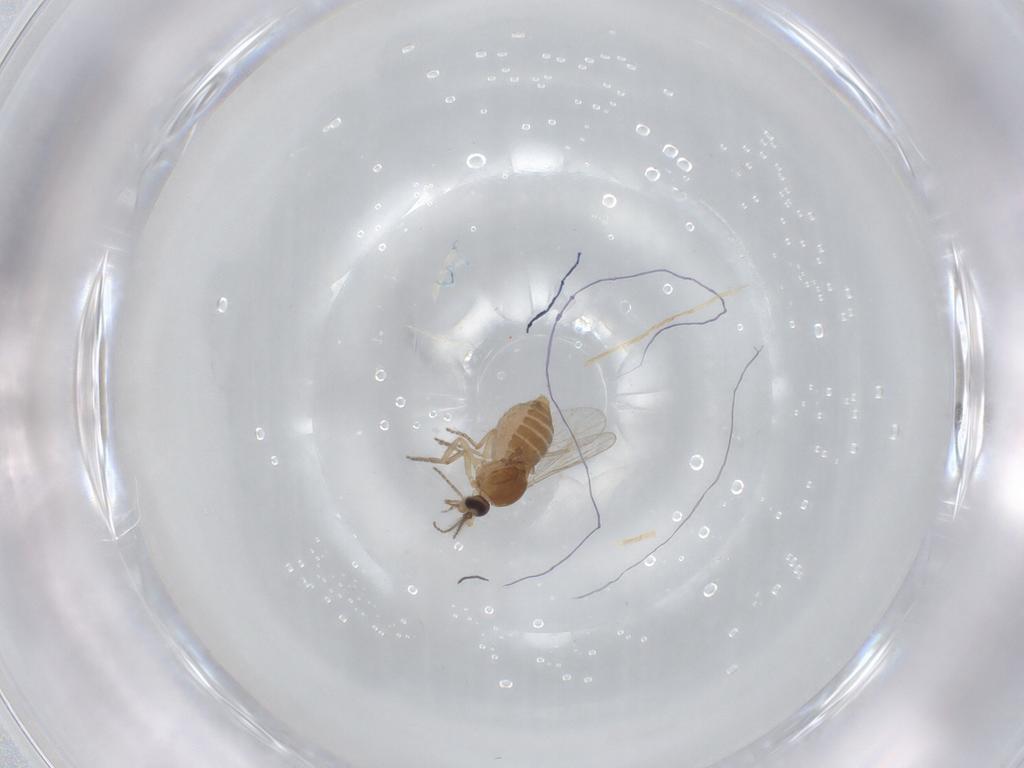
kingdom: Animalia
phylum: Arthropoda
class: Insecta
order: Diptera
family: Ceratopogonidae
